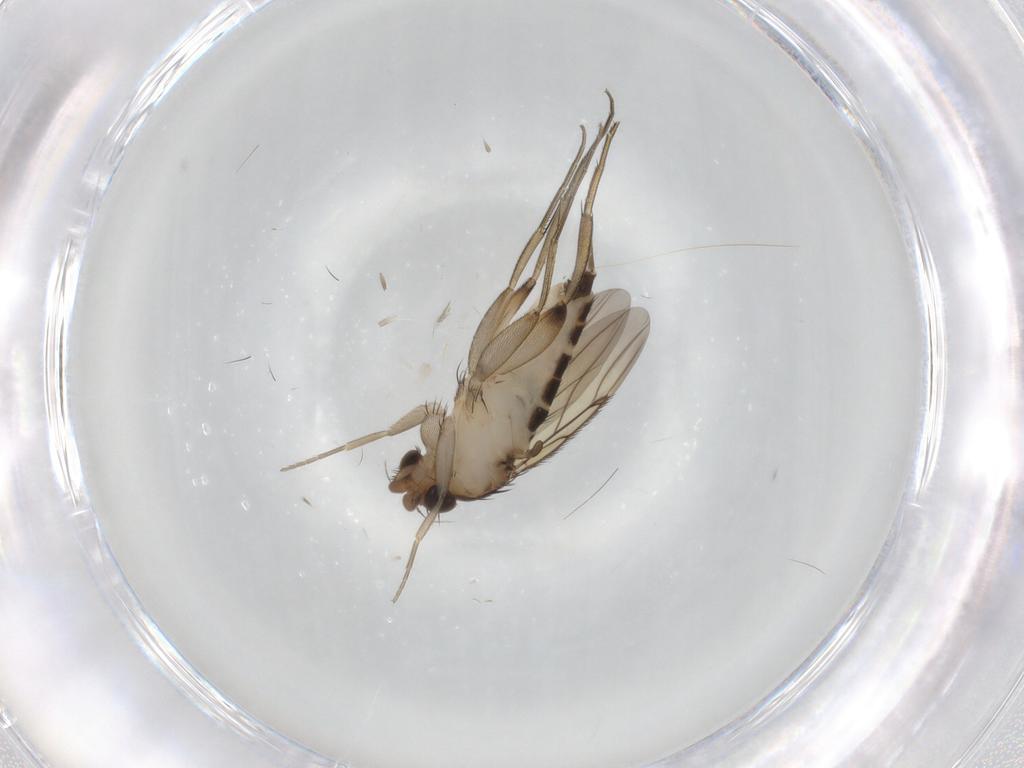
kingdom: Animalia
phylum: Arthropoda
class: Insecta
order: Diptera
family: Phoridae
